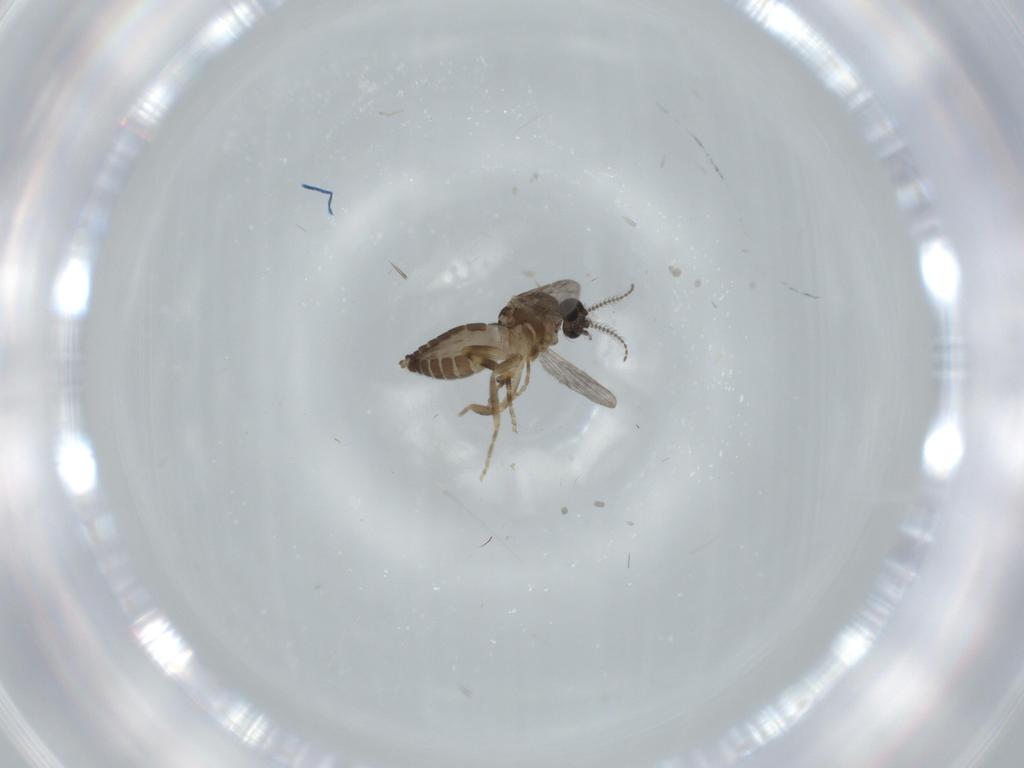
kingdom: Animalia
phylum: Arthropoda
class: Insecta
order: Diptera
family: Ceratopogonidae
